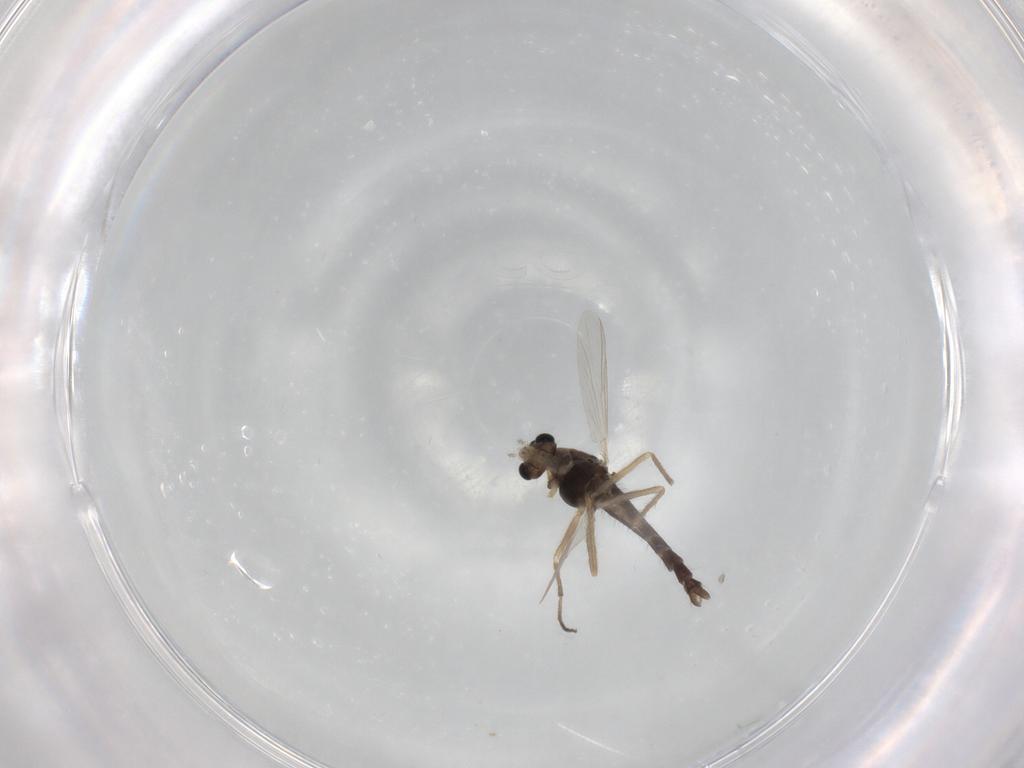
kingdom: Animalia
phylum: Arthropoda
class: Insecta
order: Diptera
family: Chironomidae
